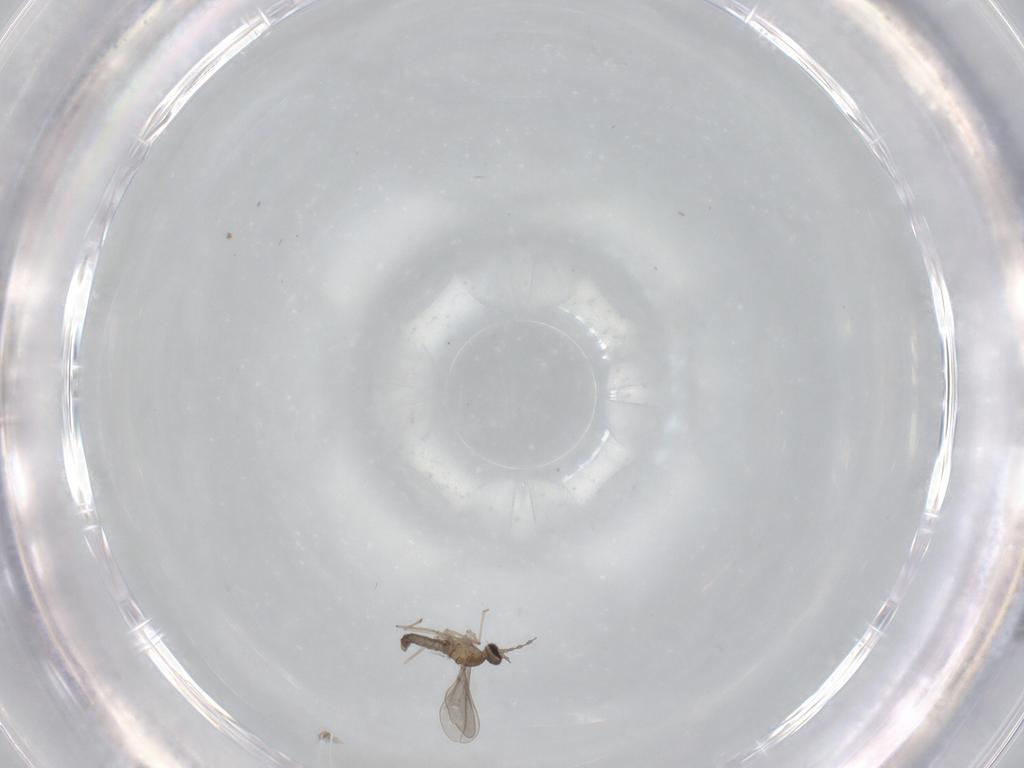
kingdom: Animalia
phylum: Arthropoda
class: Insecta
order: Diptera
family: Cecidomyiidae
